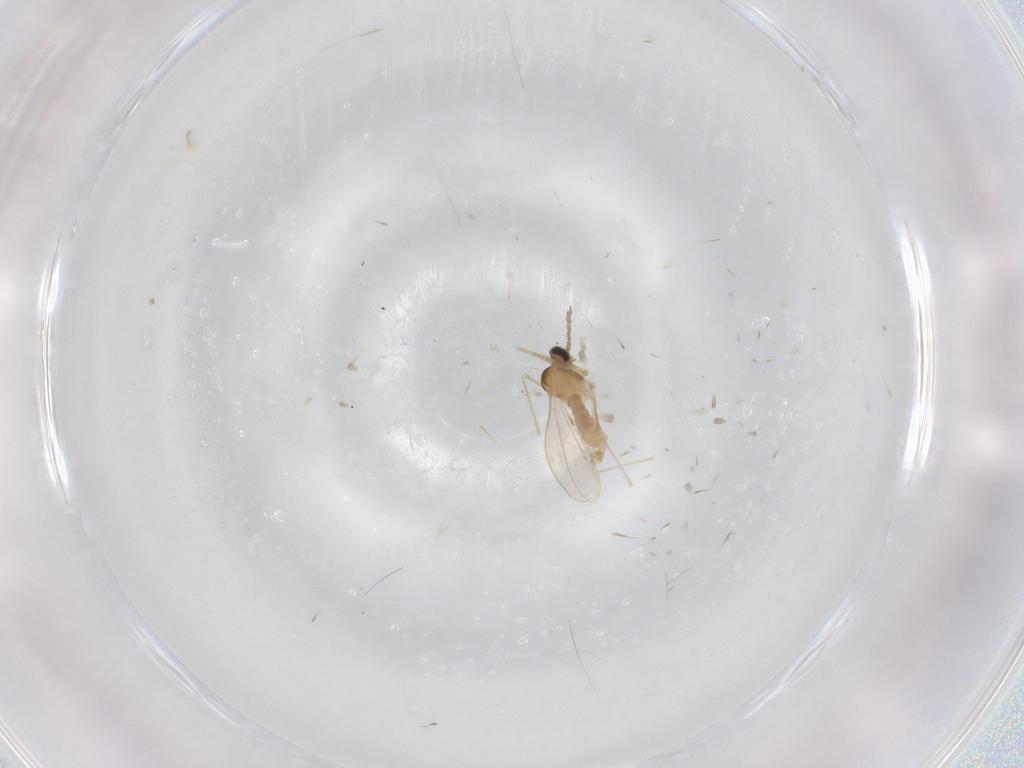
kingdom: Animalia
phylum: Arthropoda
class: Insecta
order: Diptera
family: Cecidomyiidae
